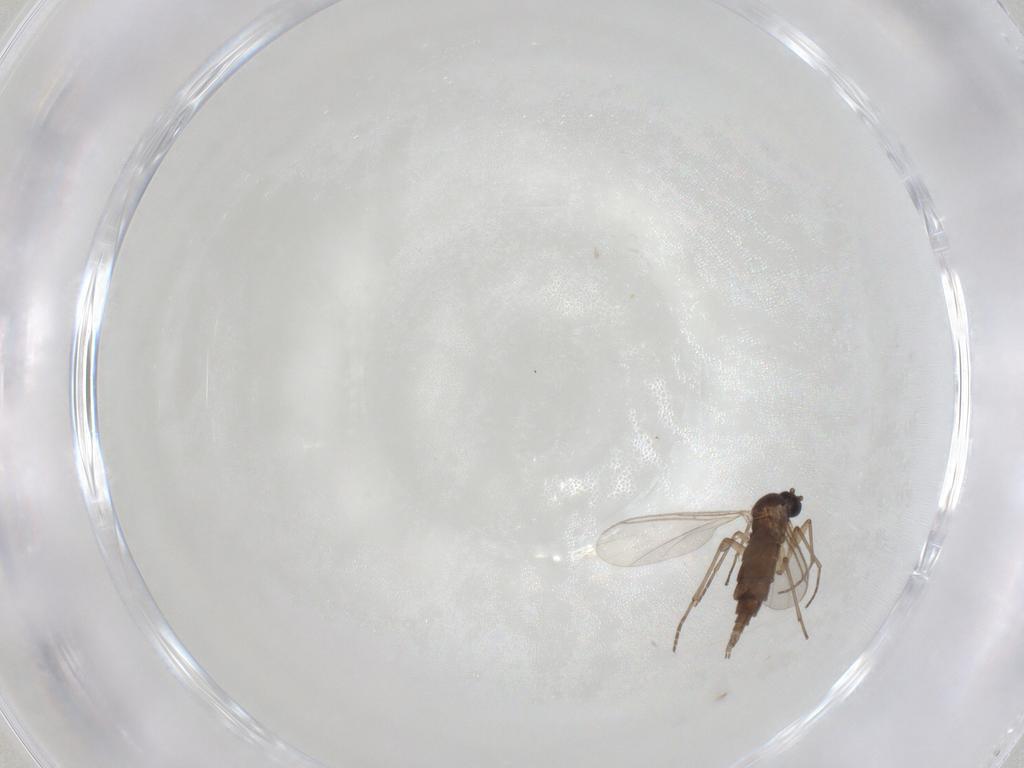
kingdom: Animalia
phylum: Arthropoda
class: Insecta
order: Diptera
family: Sciaridae
